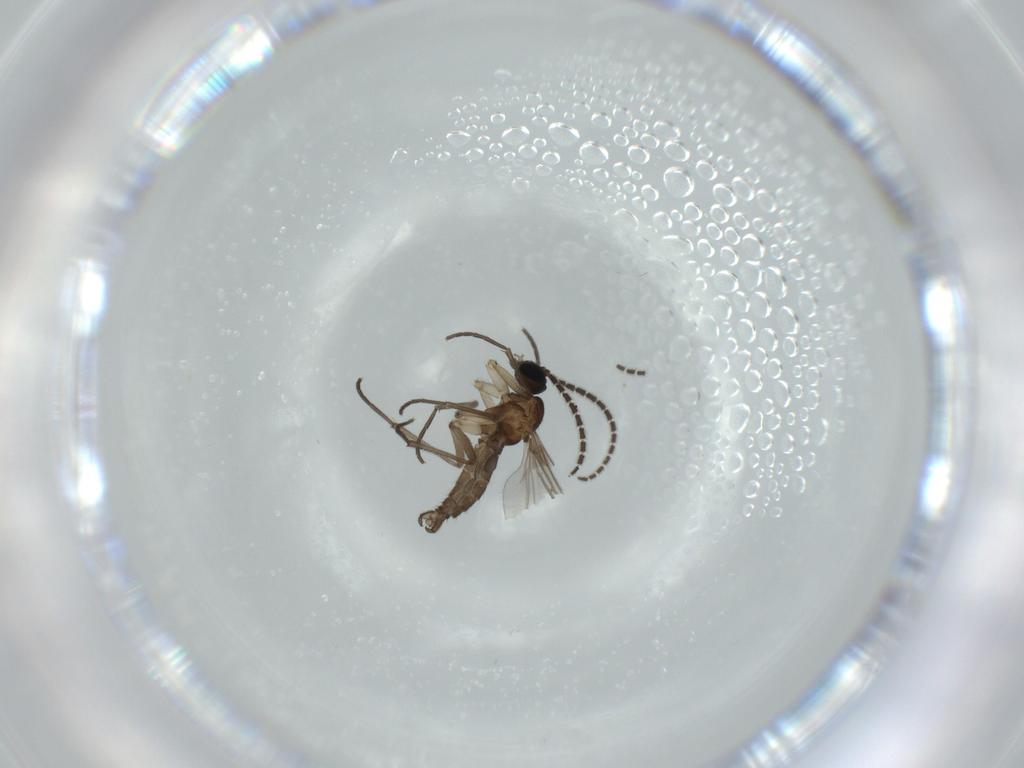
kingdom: Animalia
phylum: Arthropoda
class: Insecta
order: Diptera
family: Sciaridae
